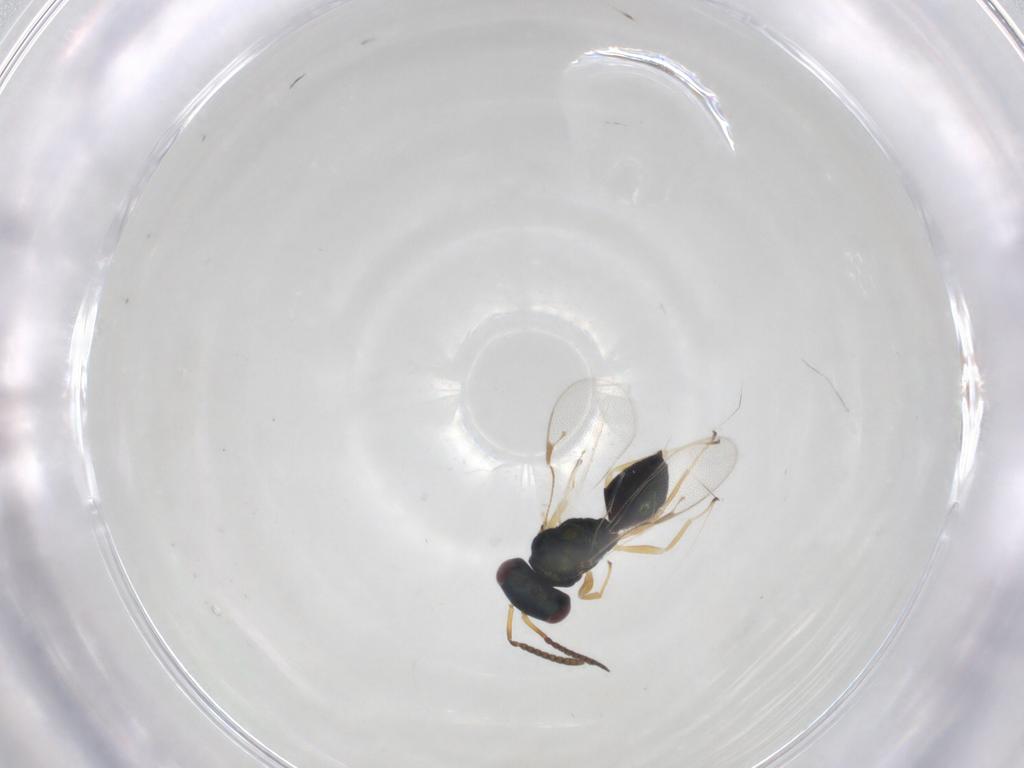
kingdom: Animalia
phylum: Arthropoda
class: Insecta
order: Hymenoptera
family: Pteromalidae
